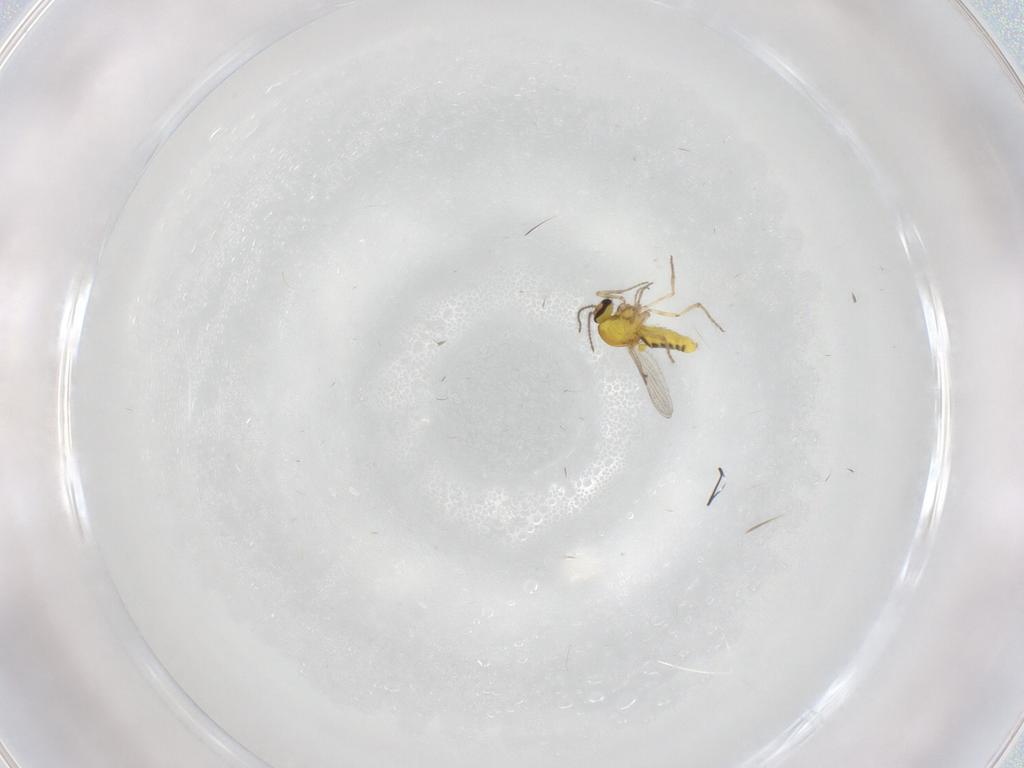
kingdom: Animalia
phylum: Arthropoda
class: Insecta
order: Diptera
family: Ceratopogonidae
